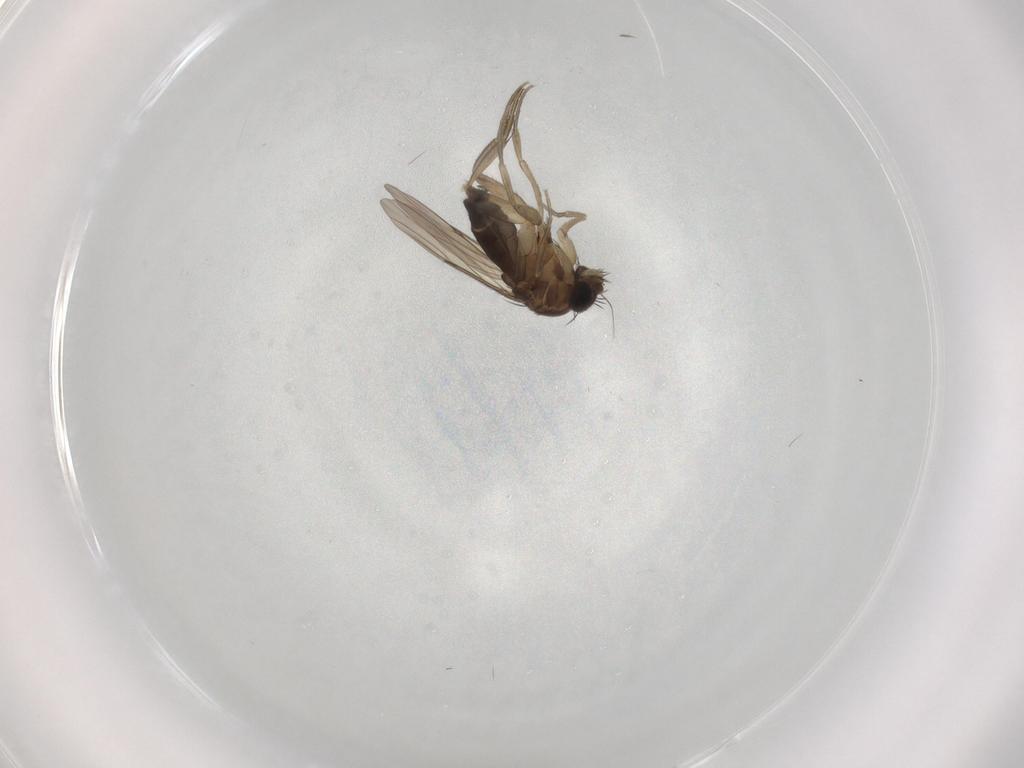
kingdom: Animalia
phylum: Arthropoda
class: Insecta
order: Diptera
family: Phoridae
